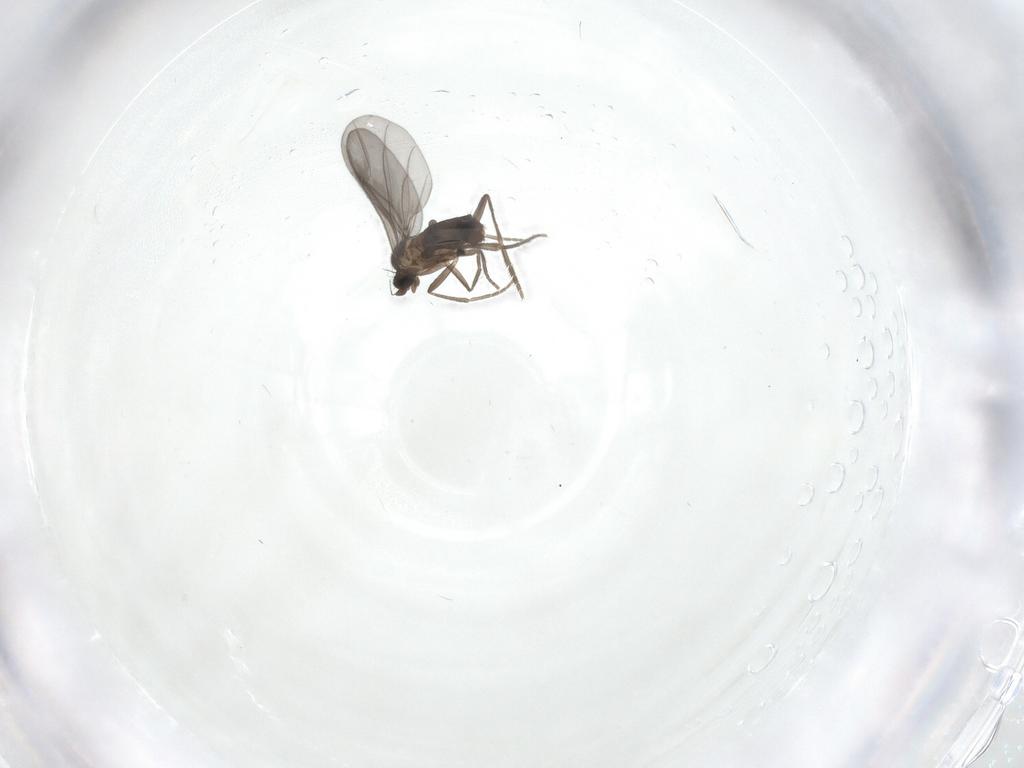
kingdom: Animalia
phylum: Arthropoda
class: Insecta
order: Diptera
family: Phoridae
